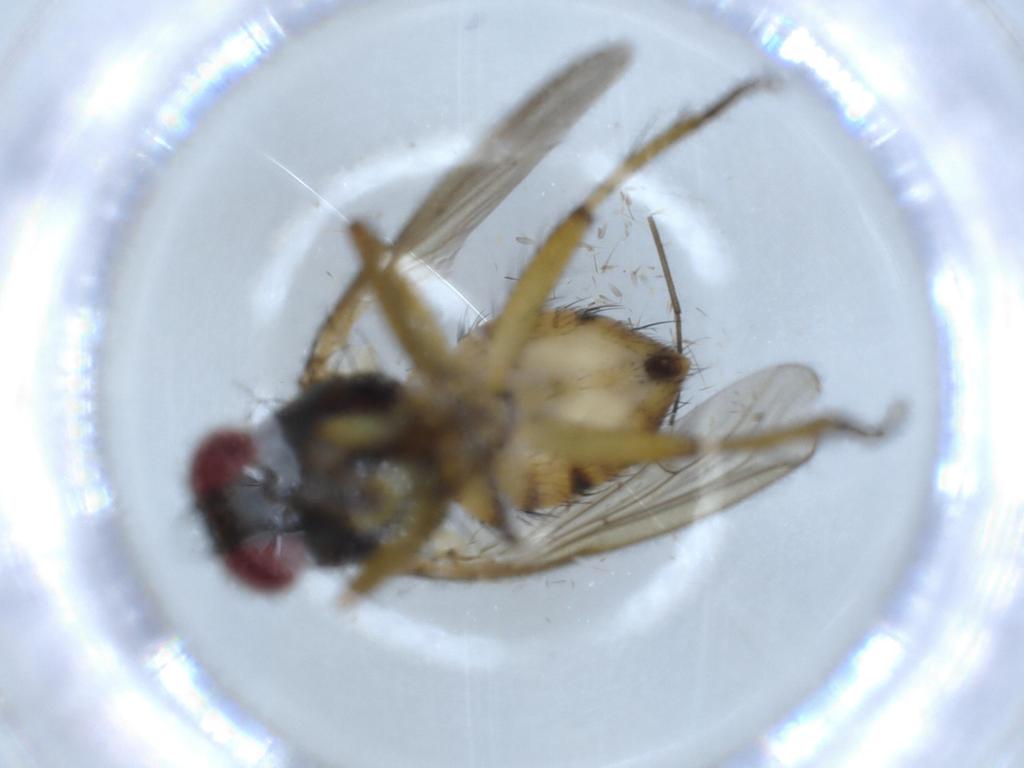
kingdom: Animalia
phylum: Arthropoda
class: Insecta
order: Diptera
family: Muscidae
